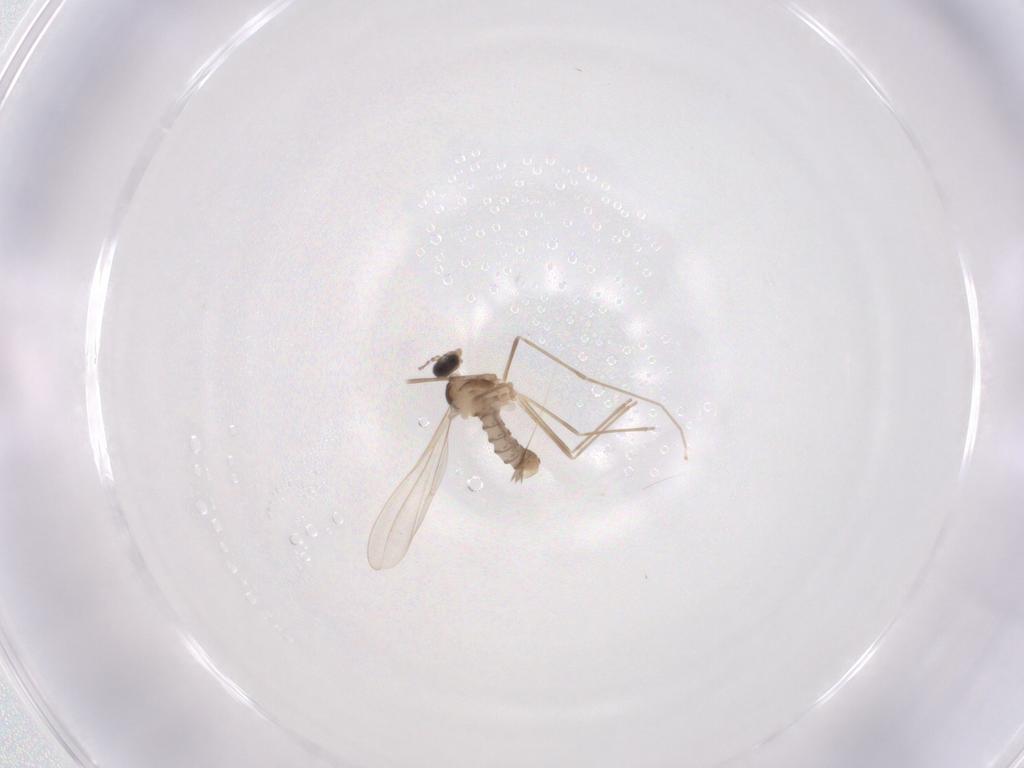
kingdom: Animalia
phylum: Arthropoda
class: Insecta
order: Diptera
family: Cecidomyiidae
